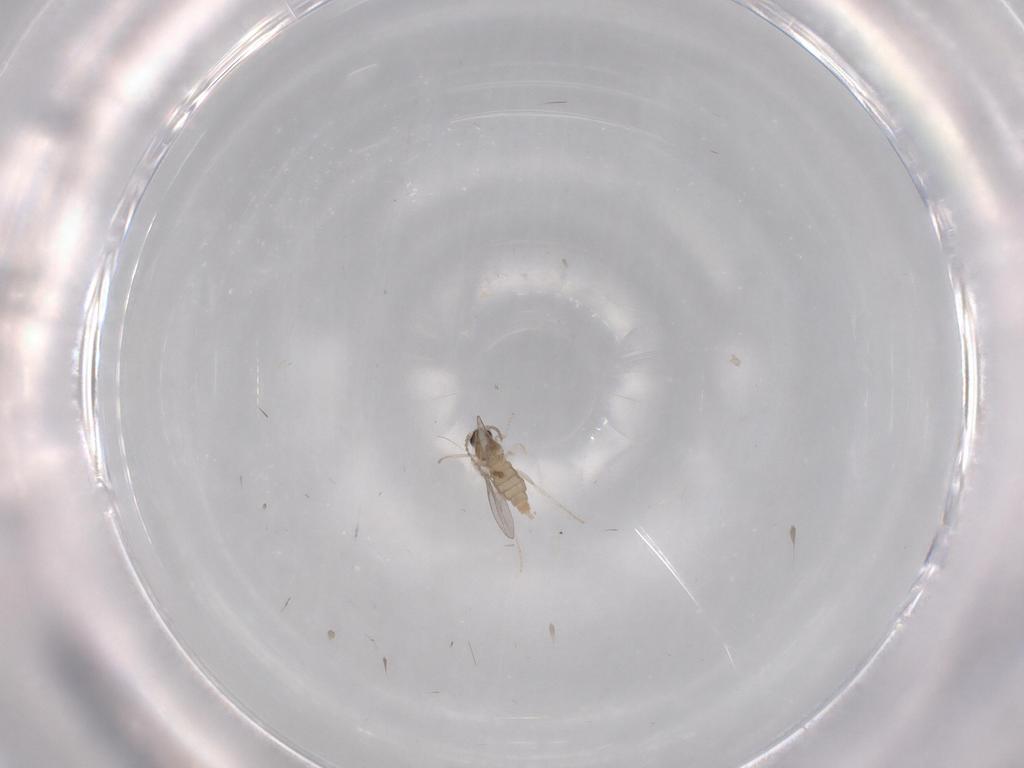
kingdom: Animalia
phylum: Arthropoda
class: Insecta
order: Diptera
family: Cecidomyiidae
